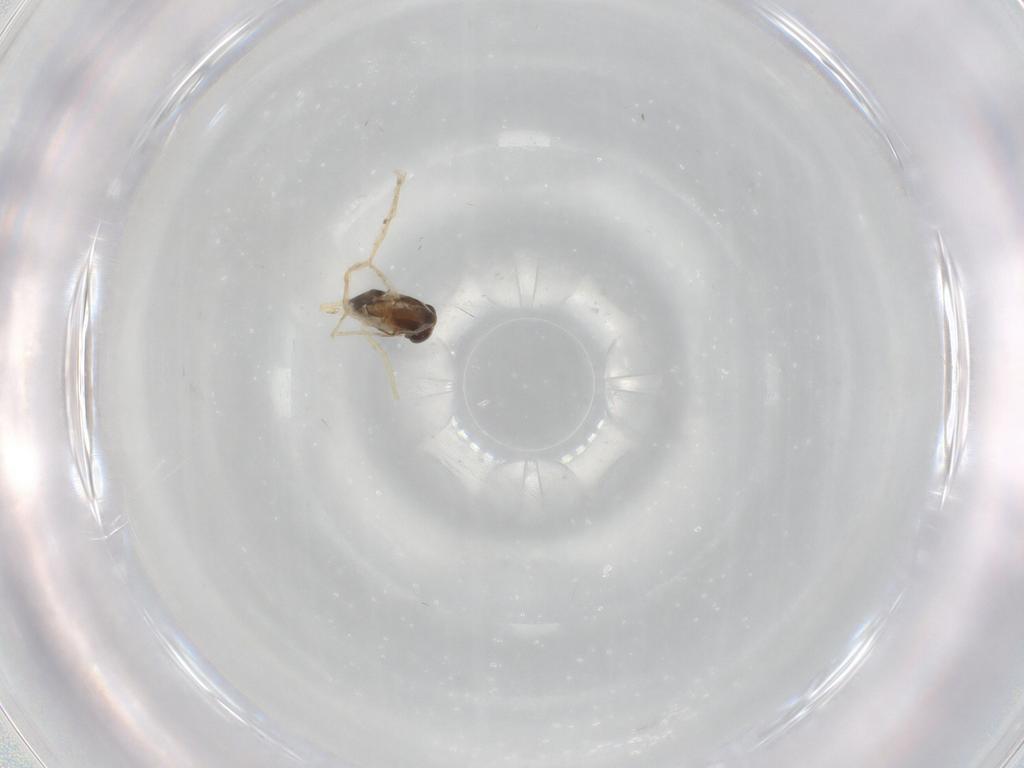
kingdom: Animalia
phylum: Arthropoda
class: Insecta
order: Diptera
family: Chironomidae
